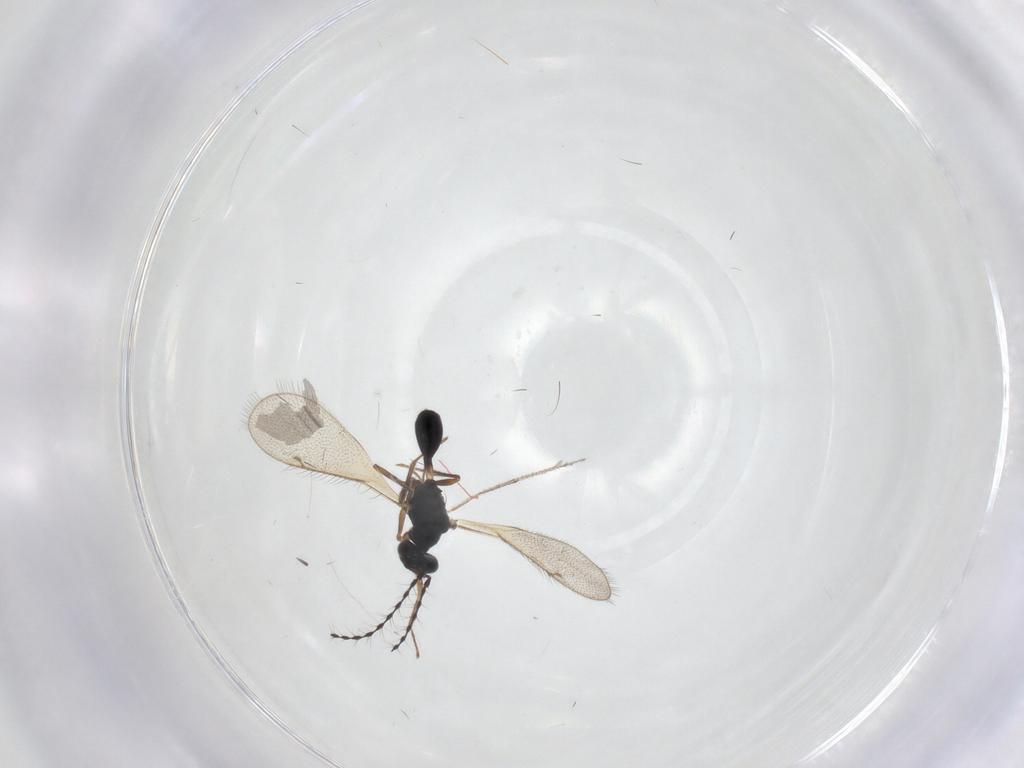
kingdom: Animalia
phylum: Arthropoda
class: Insecta
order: Hymenoptera
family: Diparidae
